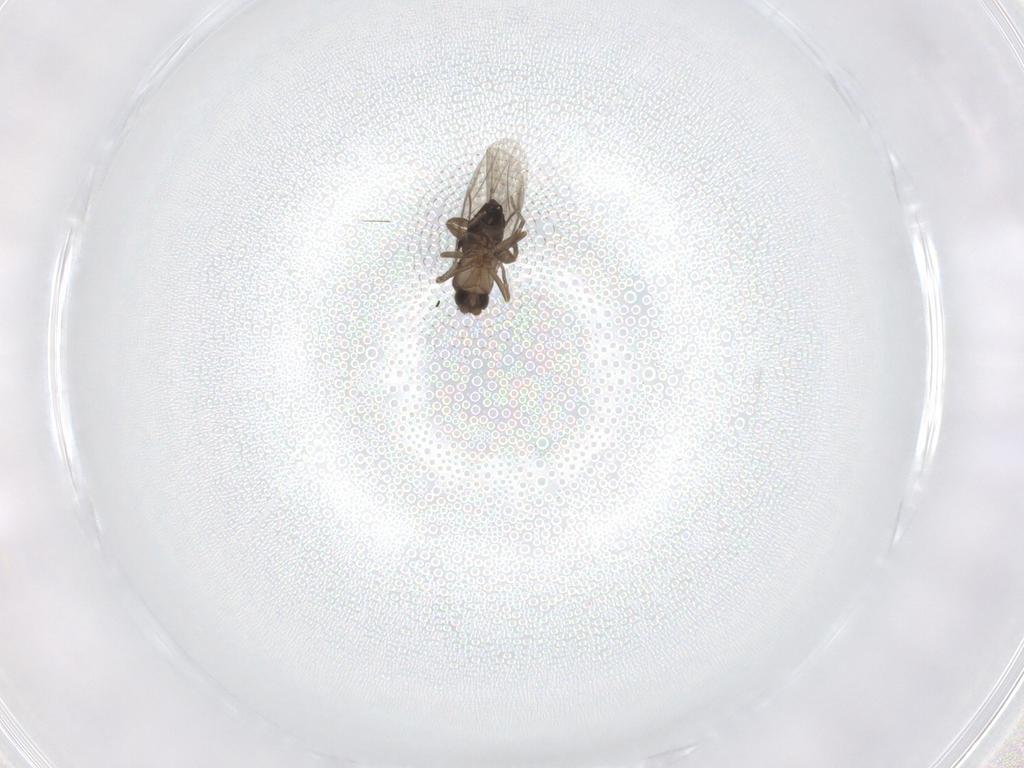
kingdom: Animalia
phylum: Arthropoda
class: Insecta
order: Diptera
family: Phoridae
